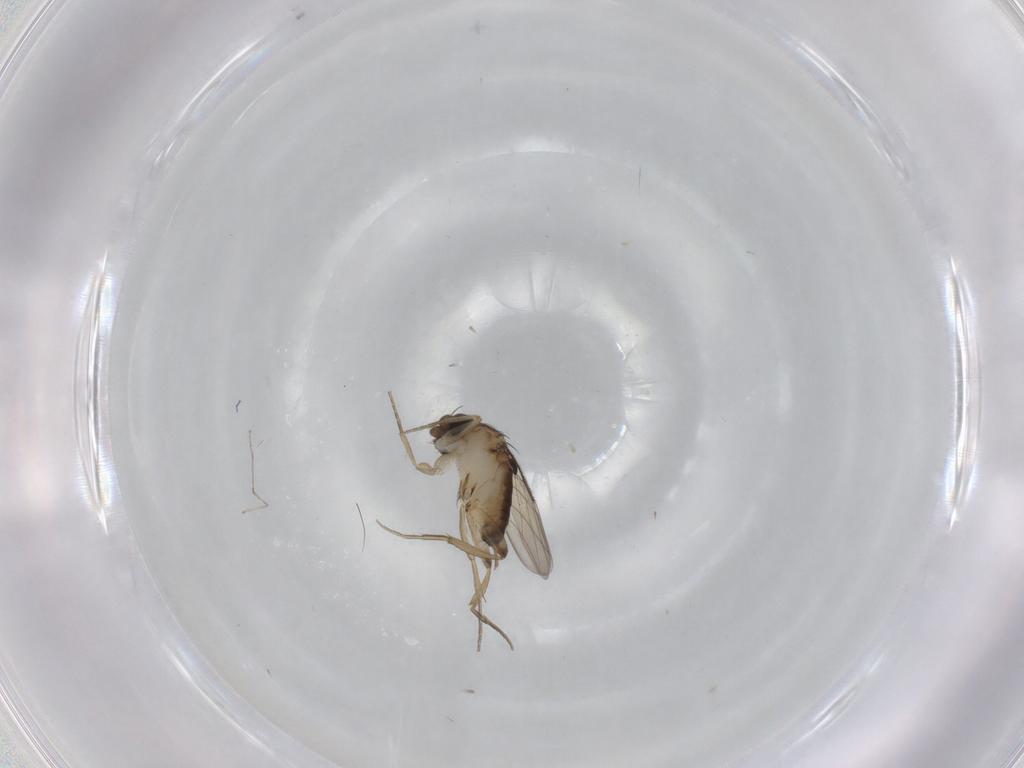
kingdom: Animalia
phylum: Arthropoda
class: Insecta
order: Diptera
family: Phoridae
